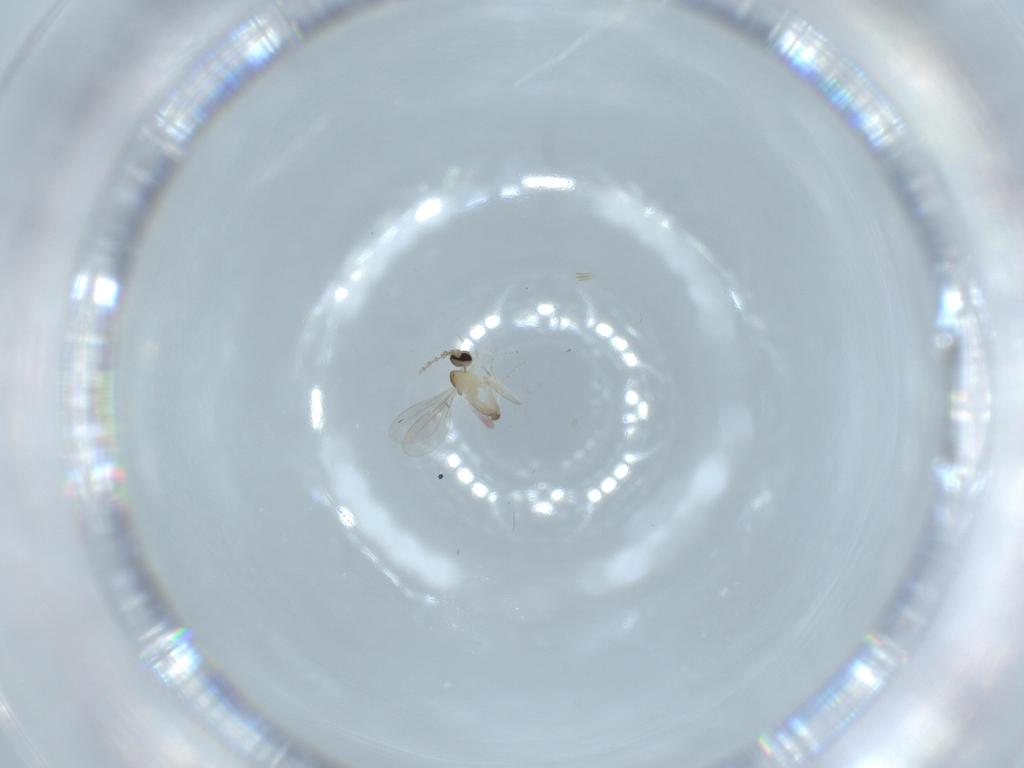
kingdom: Animalia
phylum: Arthropoda
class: Insecta
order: Diptera
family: Cecidomyiidae
